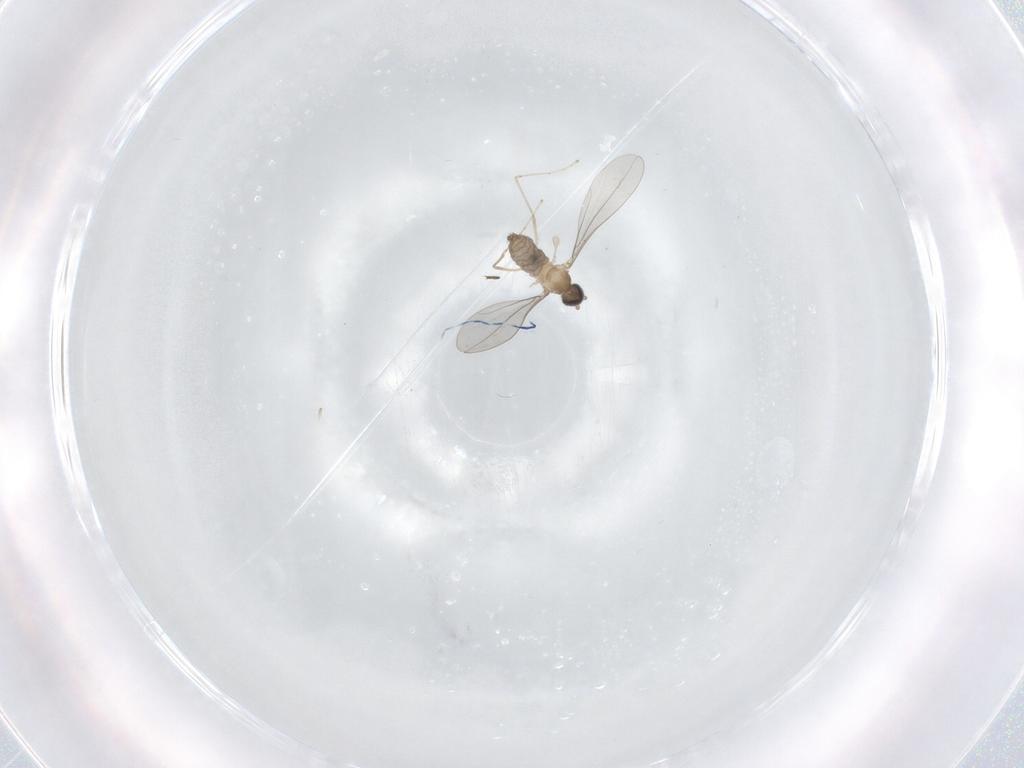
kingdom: Animalia
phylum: Arthropoda
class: Insecta
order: Diptera
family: Cecidomyiidae
